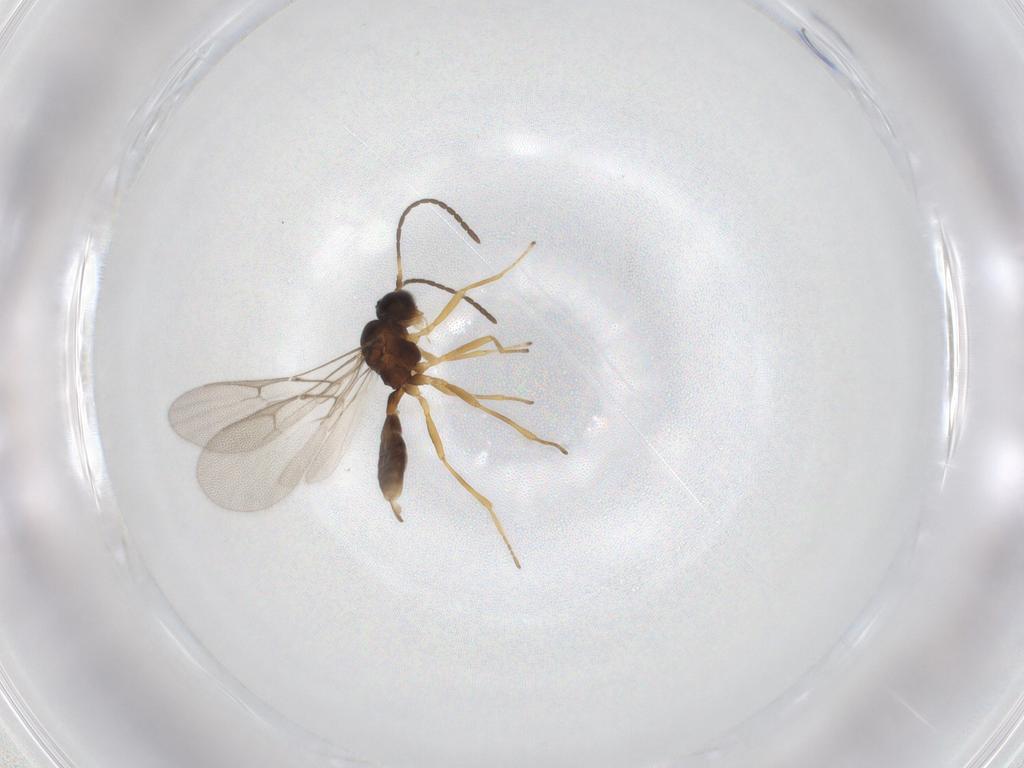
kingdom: Animalia
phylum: Arthropoda
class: Insecta
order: Hymenoptera
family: Braconidae
